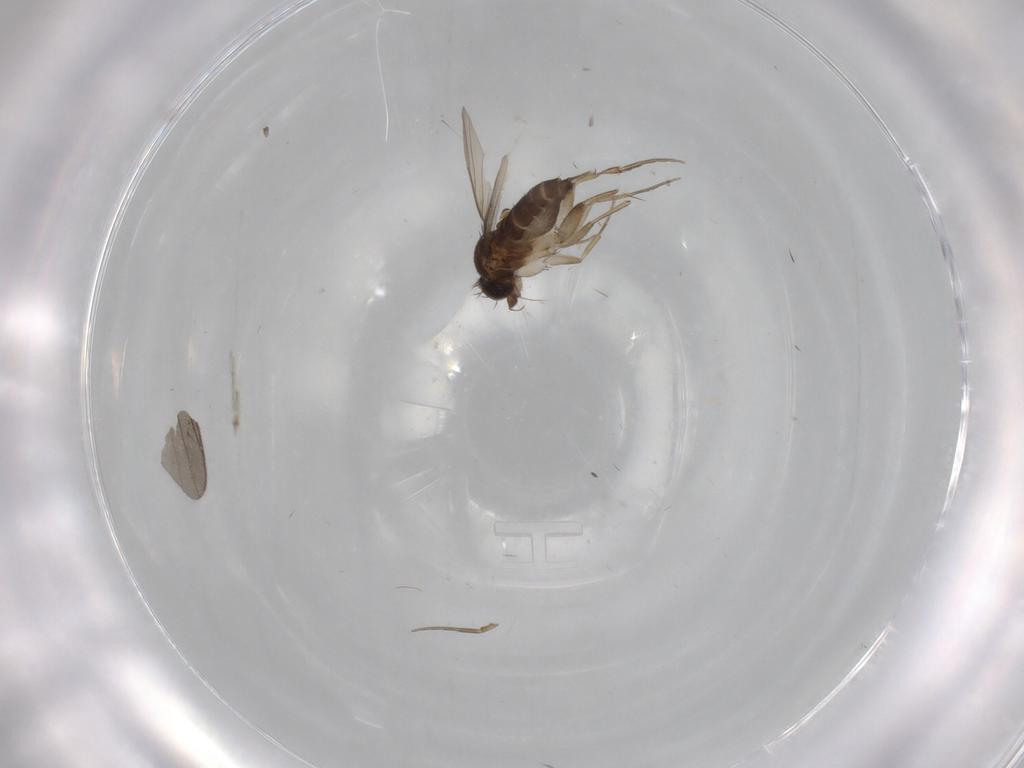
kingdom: Animalia
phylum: Arthropoda
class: Insecta
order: Diptera
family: Phoridae
